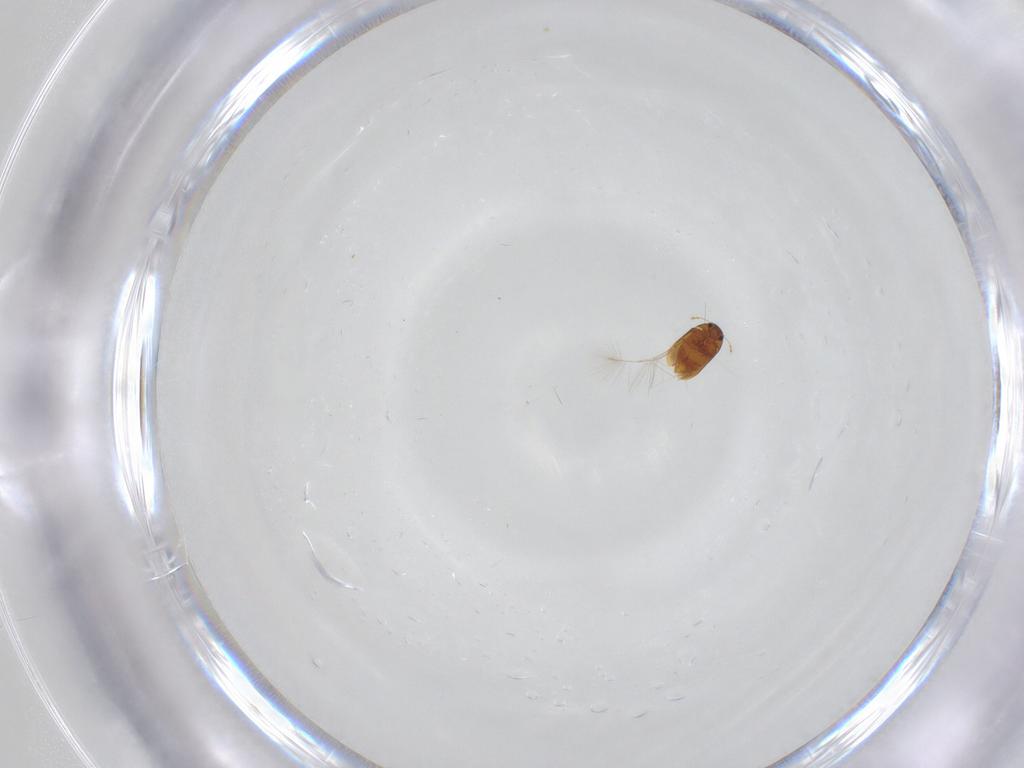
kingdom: Animalia
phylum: Arthropoda
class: Insecta
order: Coleoptera
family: Ptiliidae
